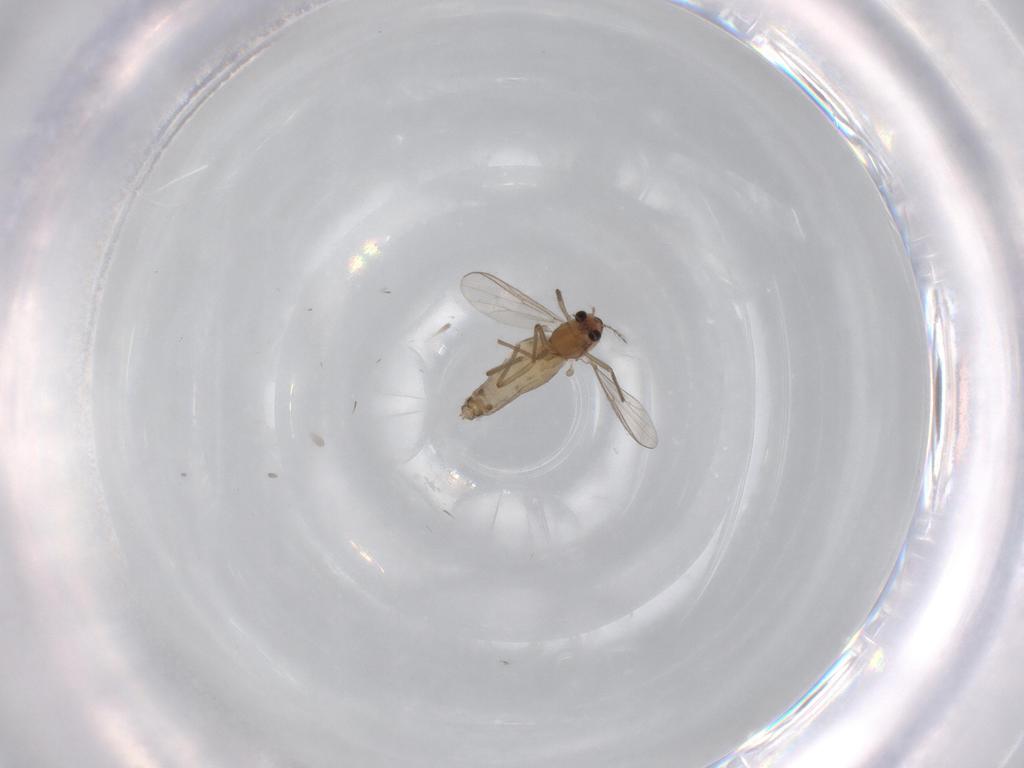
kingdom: Animalia
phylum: Arthropoda
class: Insecta
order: Diptera
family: Chironomidae
